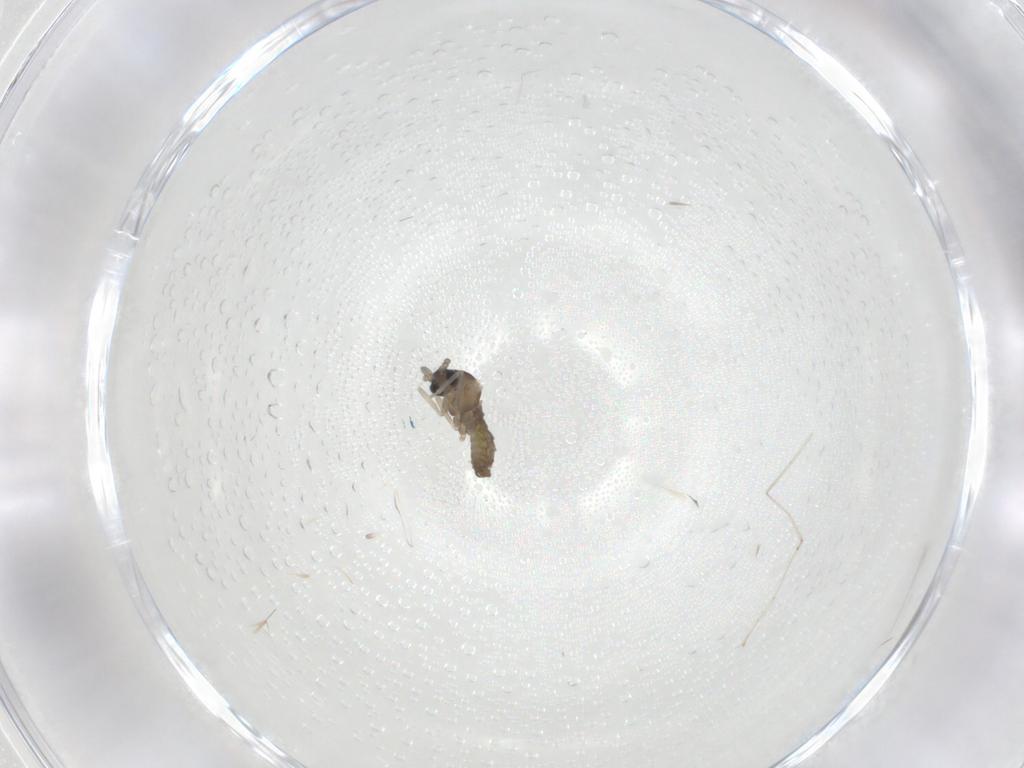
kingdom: Animalia
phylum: Arthropoda
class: Insecta
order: Diptera
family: Cecidomyiidae
